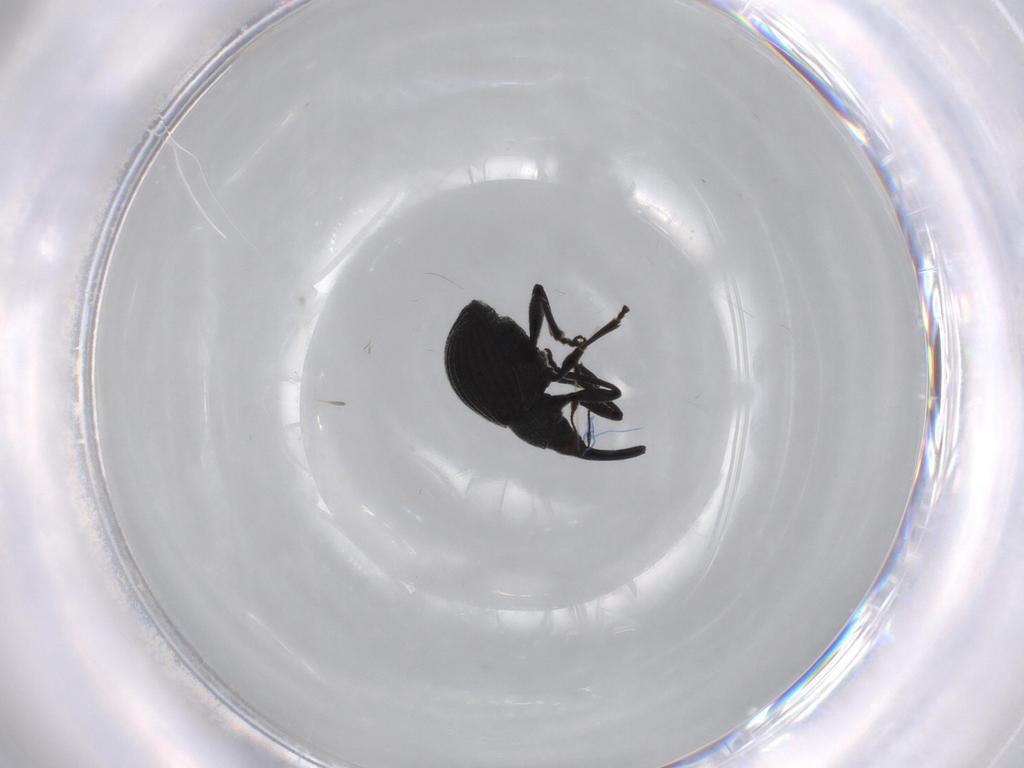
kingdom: Animalia
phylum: Arthropoda
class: Insecta
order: Coleoptera
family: Brentidae
